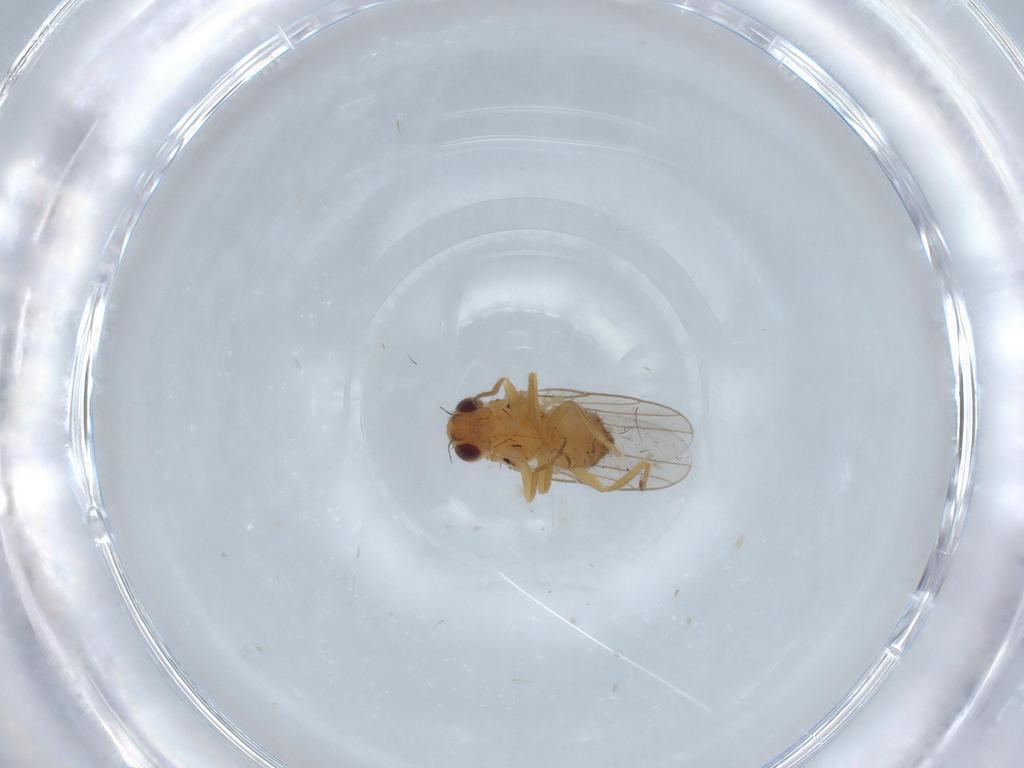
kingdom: Animalia
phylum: Arthropoda
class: Insecta
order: Diptera
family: Chloropidae
